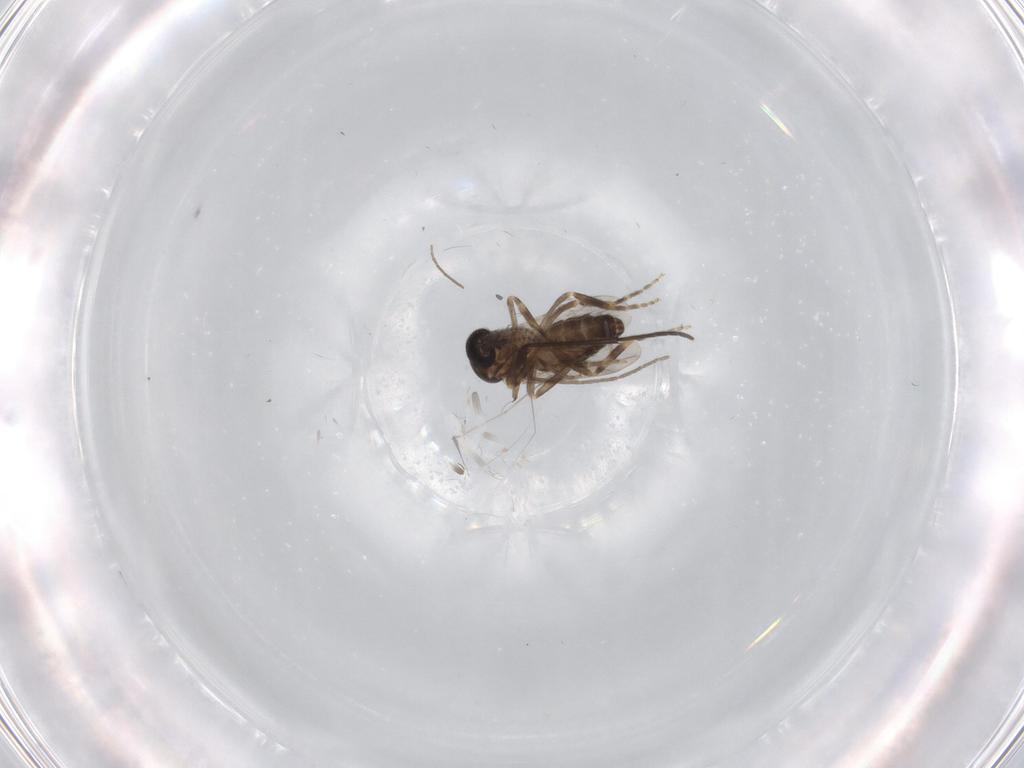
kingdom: Animalia
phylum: Arthropoda
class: Insecta
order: Diptera
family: Ceratopogonidae
